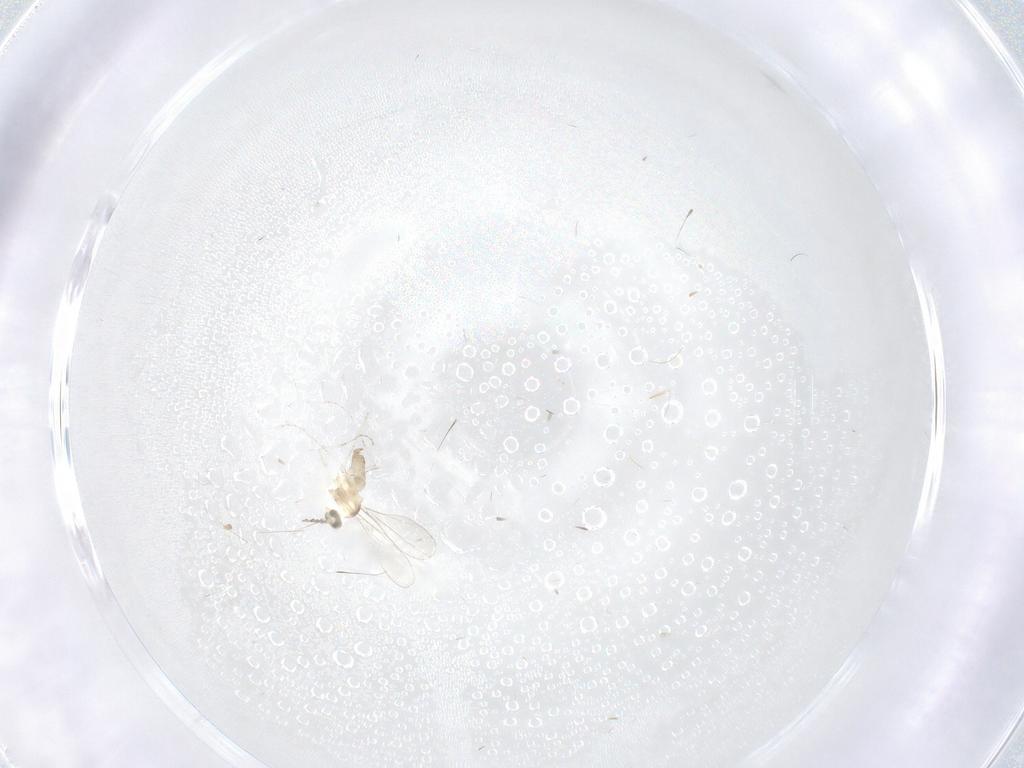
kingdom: Animalia
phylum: Arthropoda
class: Insecta
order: Diptera
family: Cecidomyiidae
